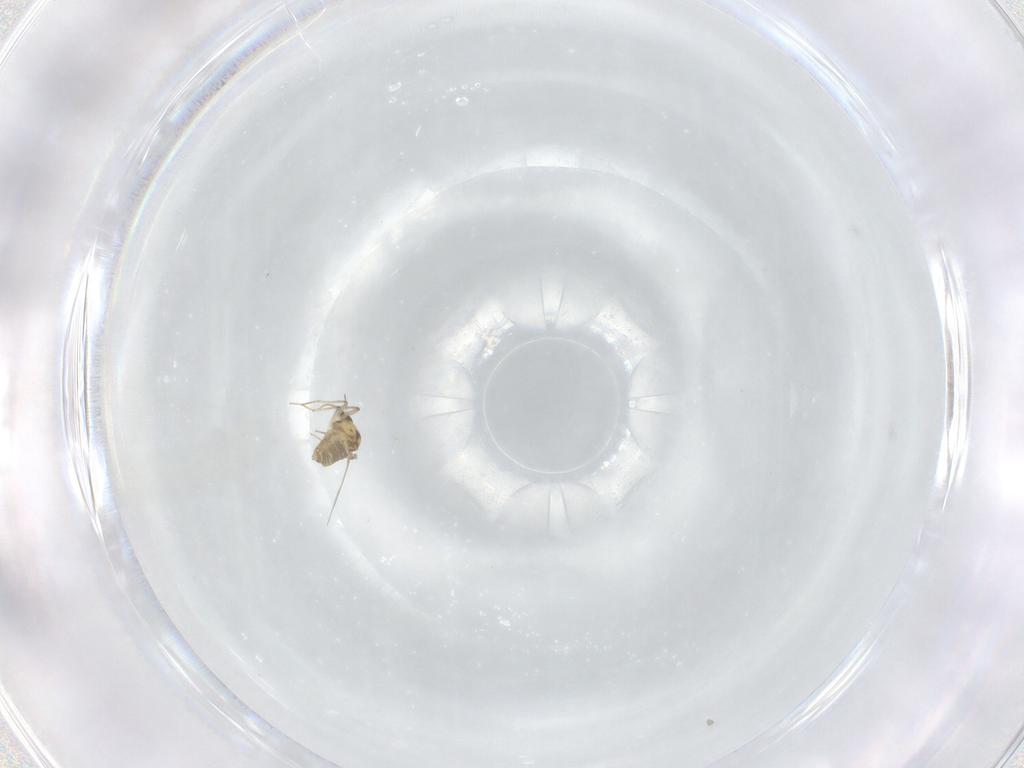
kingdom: Animalia
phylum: Arthropoda
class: Insecta
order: Diptera
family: Chironomidae
